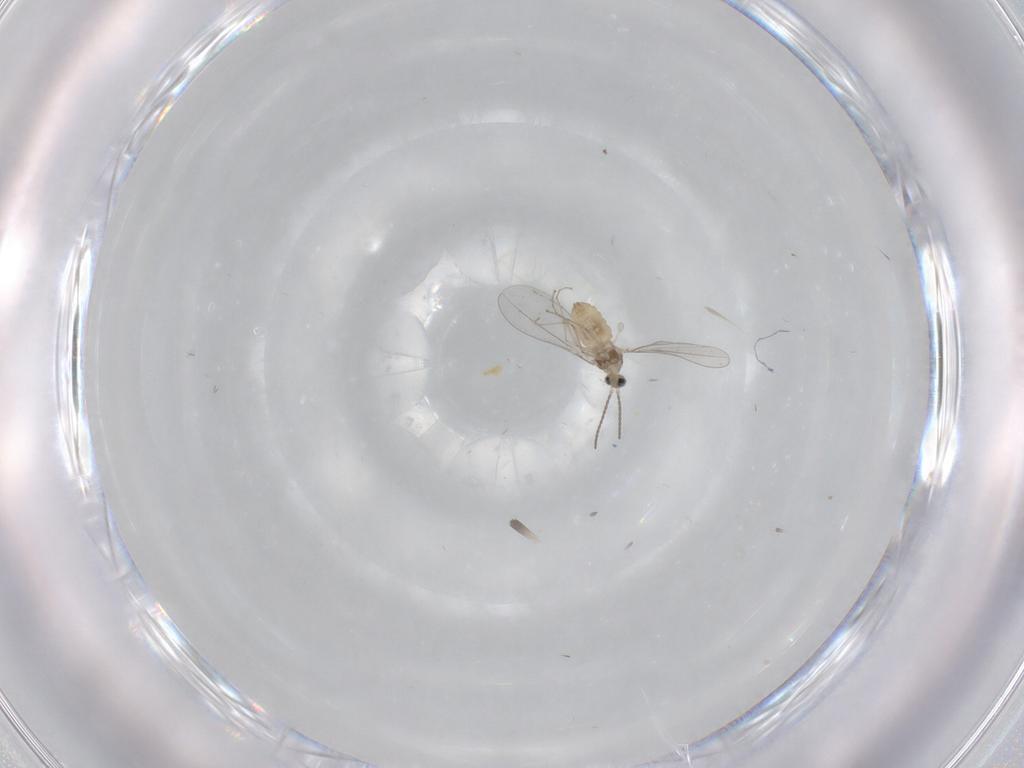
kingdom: Animalia
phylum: Arthropoda
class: Insecta
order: Diptera
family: Cecidomyiidae
